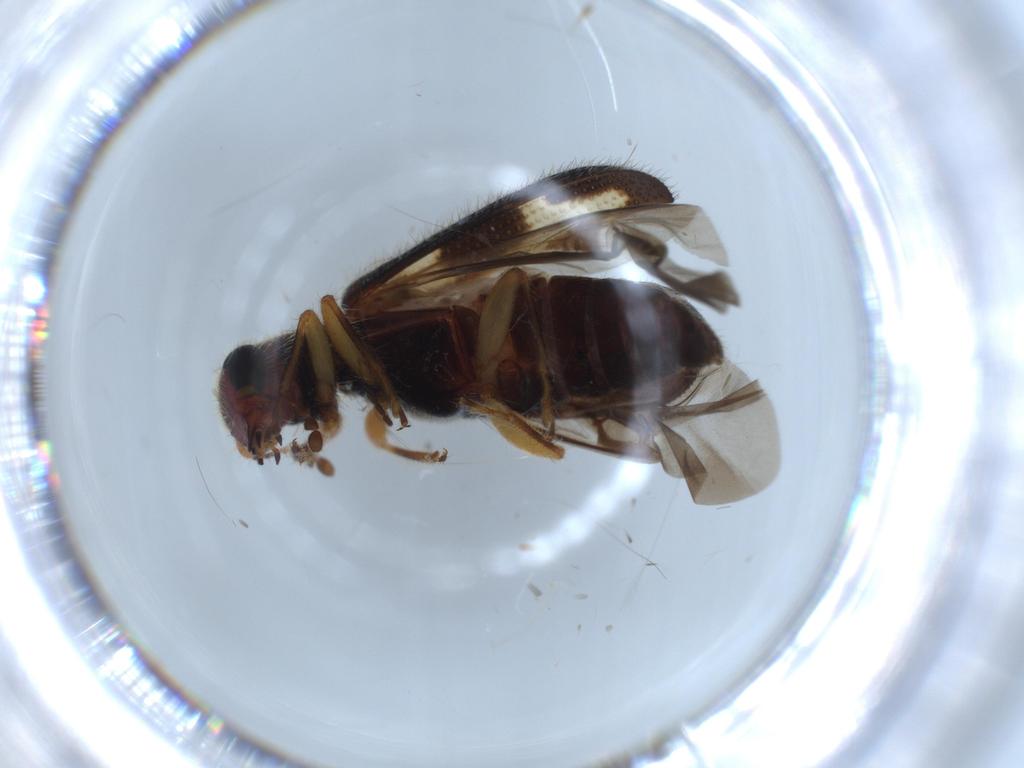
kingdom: Animalia
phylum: Arthropoda
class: Insecta
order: Coleoptera
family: Cleridae
